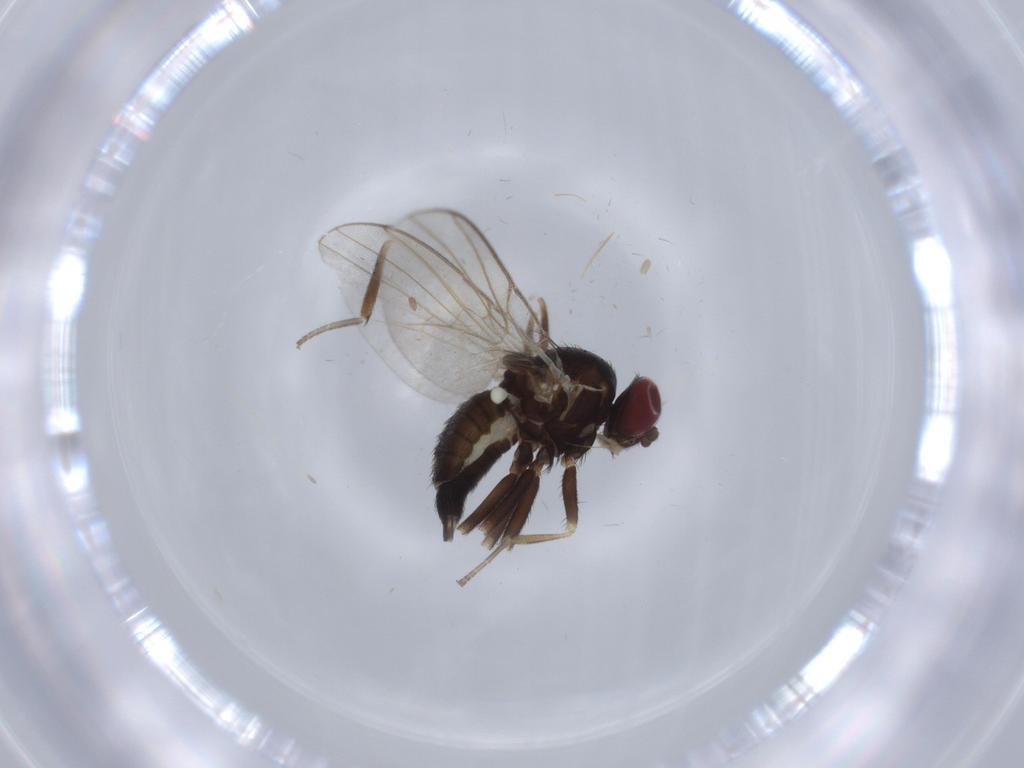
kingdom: Animalia
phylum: Arthropoda
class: Insecta
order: Diptera
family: Agromyzidae
